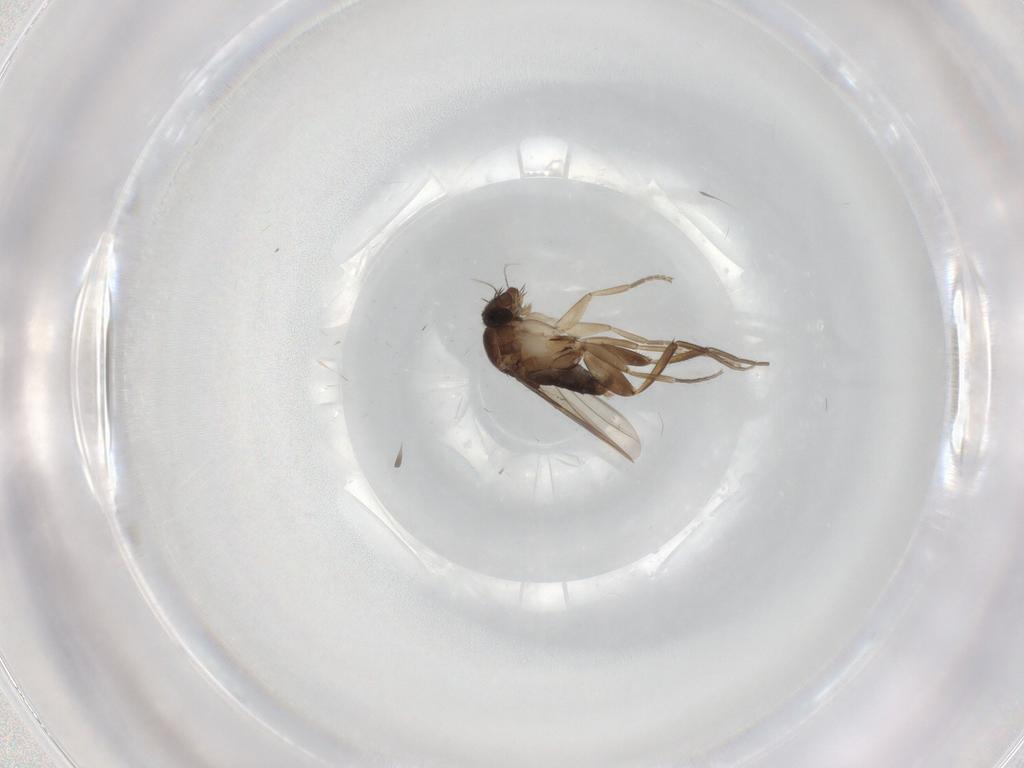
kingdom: Animalia
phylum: Arthropoda
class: Insecta
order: Diptera
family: Phoridae
